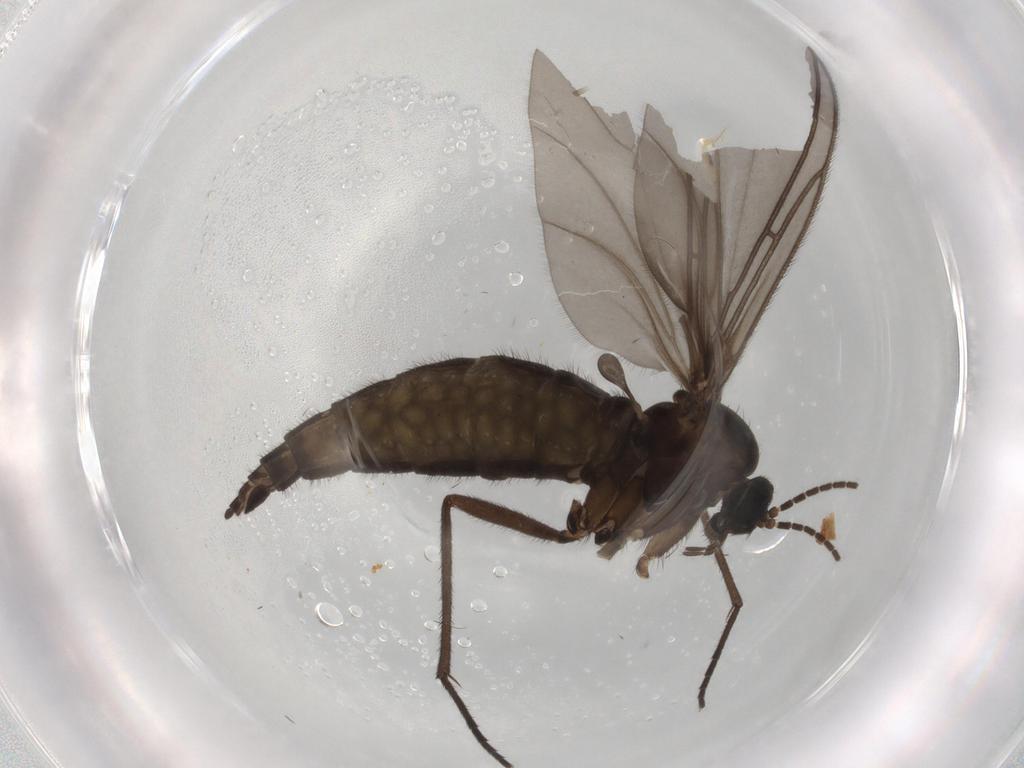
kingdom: Animalia
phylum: Arthropoda
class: Insecta
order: Diptera
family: Sciaridae
